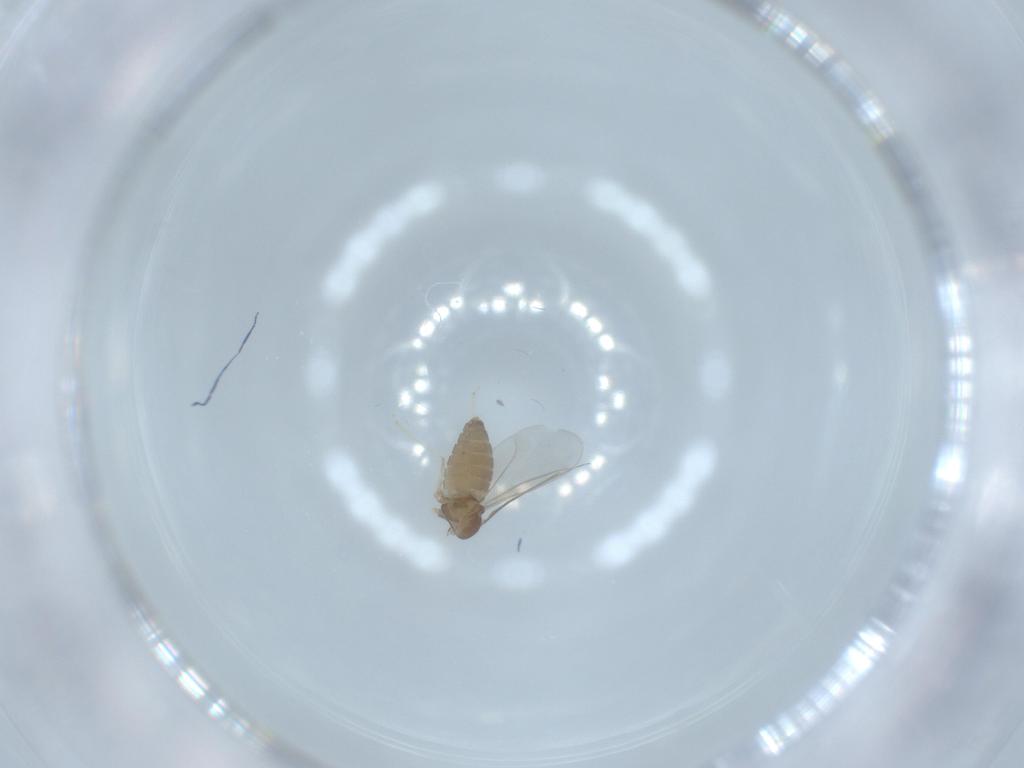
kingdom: Animalia
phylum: Arthropoda
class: Insecta
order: Diptera
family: Cecidomyiidae
